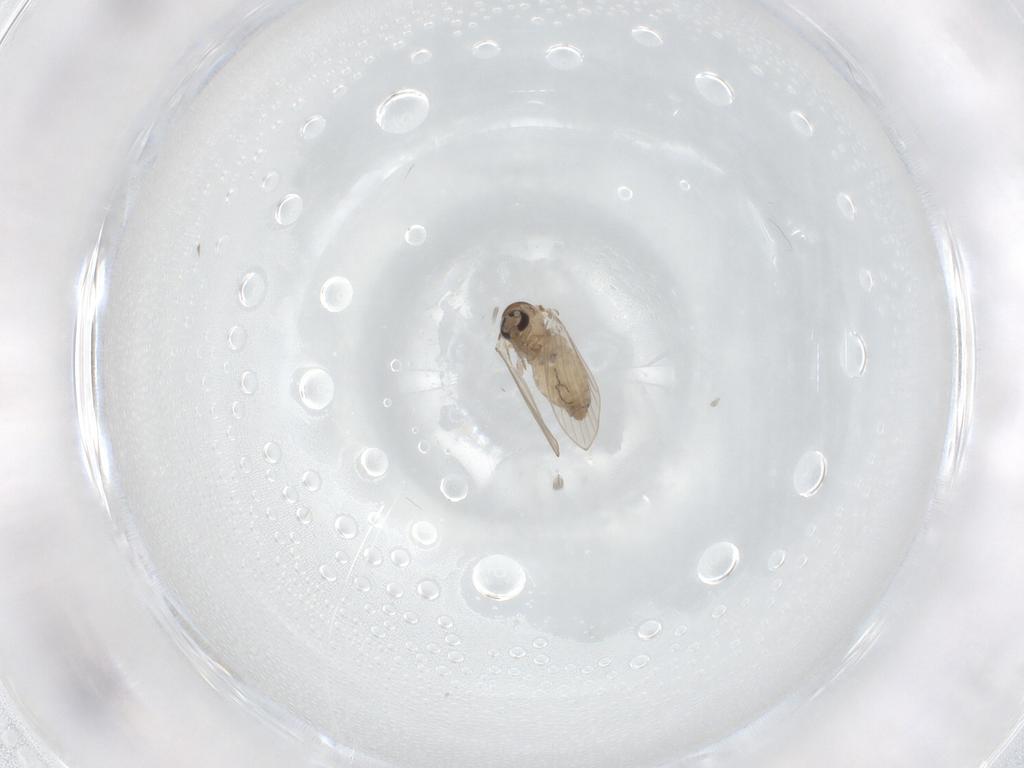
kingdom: Animalia
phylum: Arthropoda
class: Insecta
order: Diptera
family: Psychodidae
